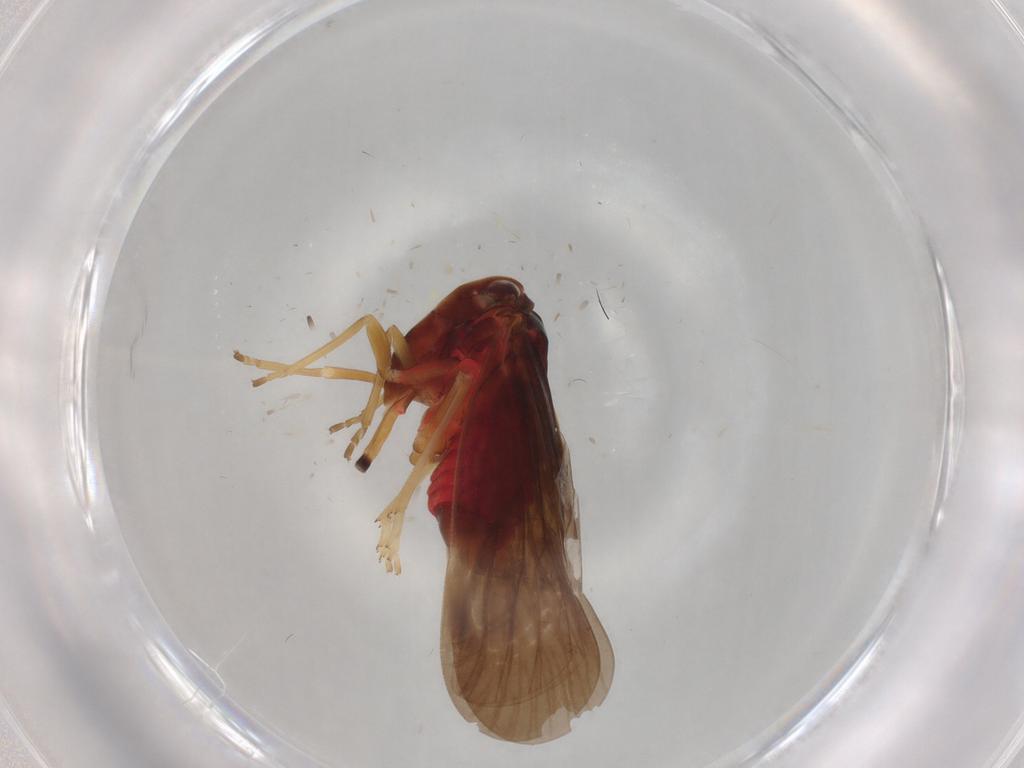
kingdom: Animalia
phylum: Arthropoda
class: Insecta
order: Hemiptera
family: Derbidae
